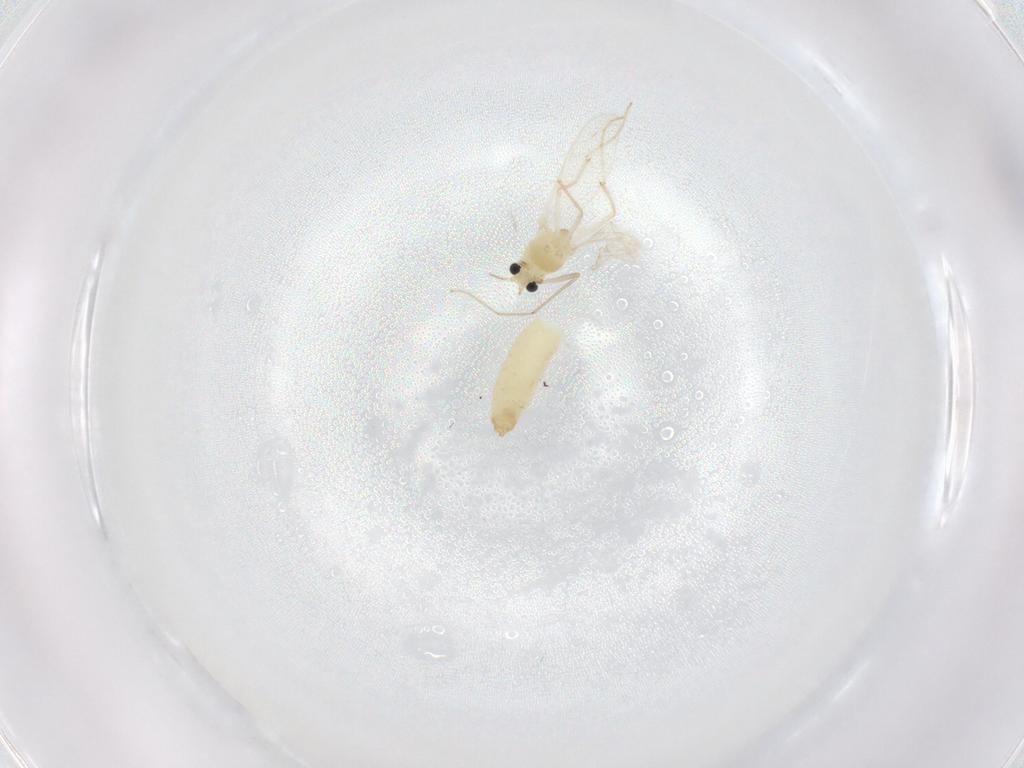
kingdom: Animalia
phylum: Arthropoda
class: Insecta
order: Diptera
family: Chironomidae
